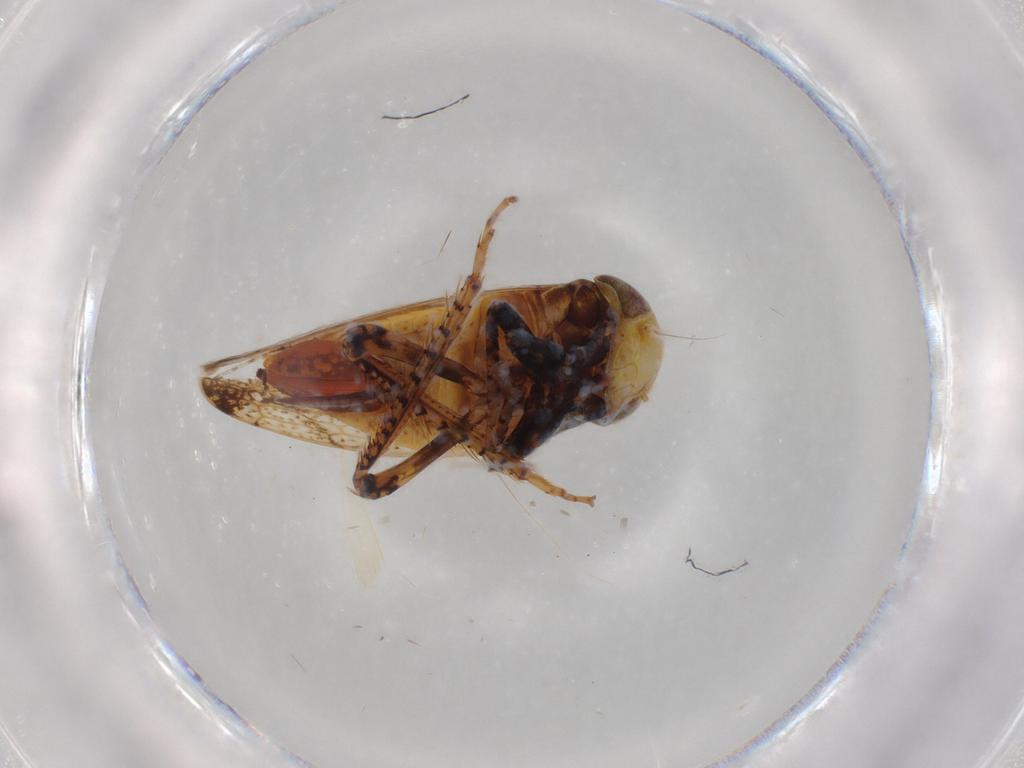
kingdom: Animalia
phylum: Arthropoda
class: Insecta
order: Hemiptera
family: Cicadellidae
